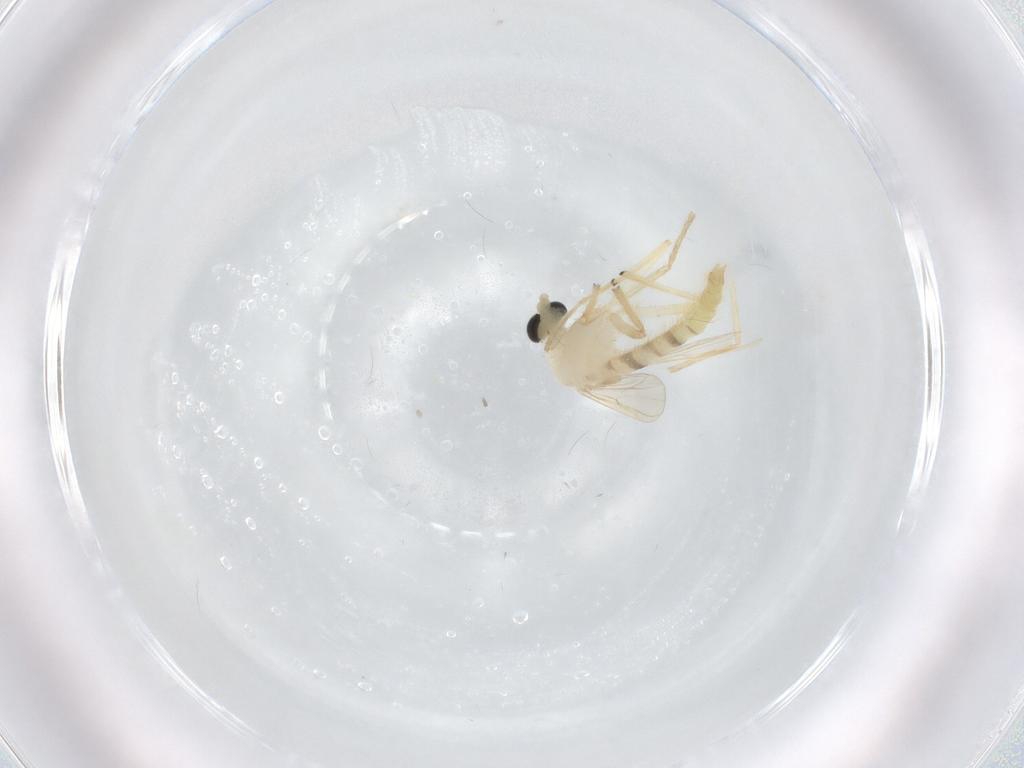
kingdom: Animalia
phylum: Arthropoda
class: Insecta
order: Diptera
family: Chironomidae
